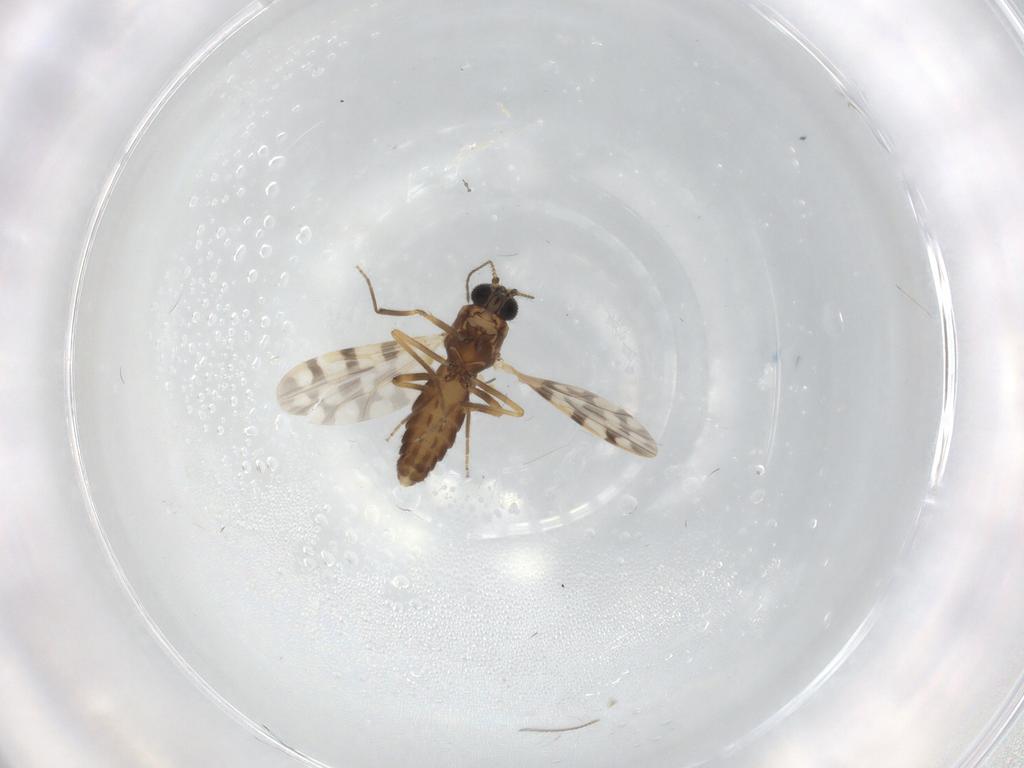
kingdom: Animalia
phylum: Arthropoda
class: Insecta
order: Diptera
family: Ceratopogonidae
